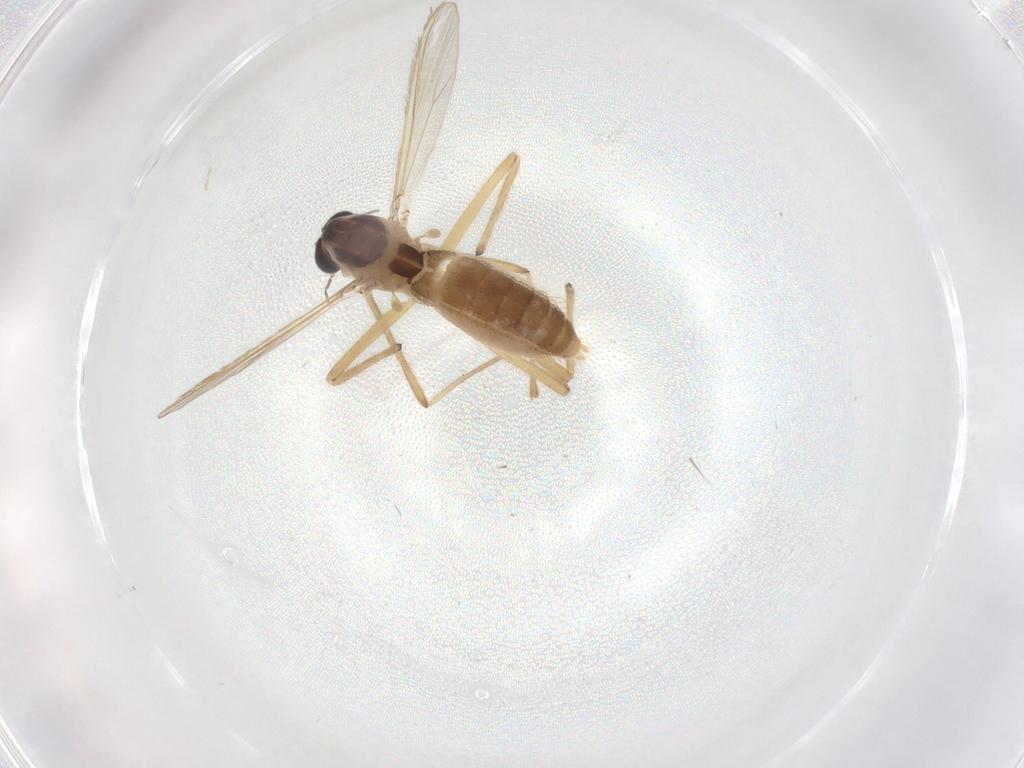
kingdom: Animalia
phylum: Arthropoda
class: Insecta
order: Diptera
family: Chironomidae
